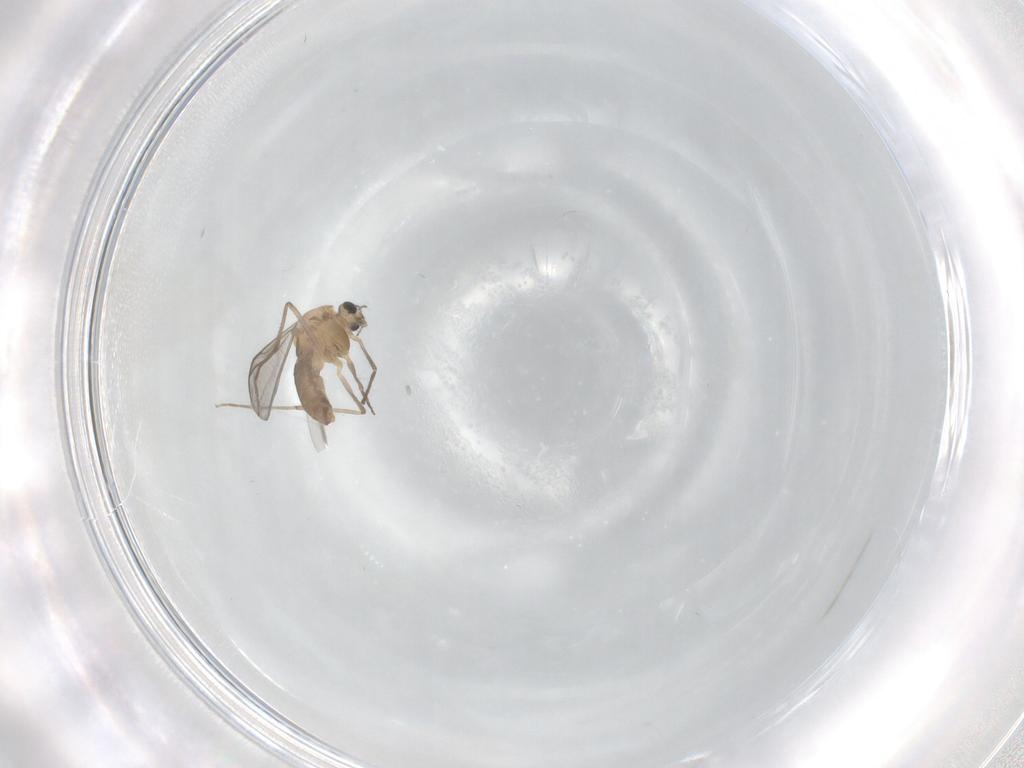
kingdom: Animalia
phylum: Arthropoda
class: Insecta
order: Diptera
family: Chironomidae
